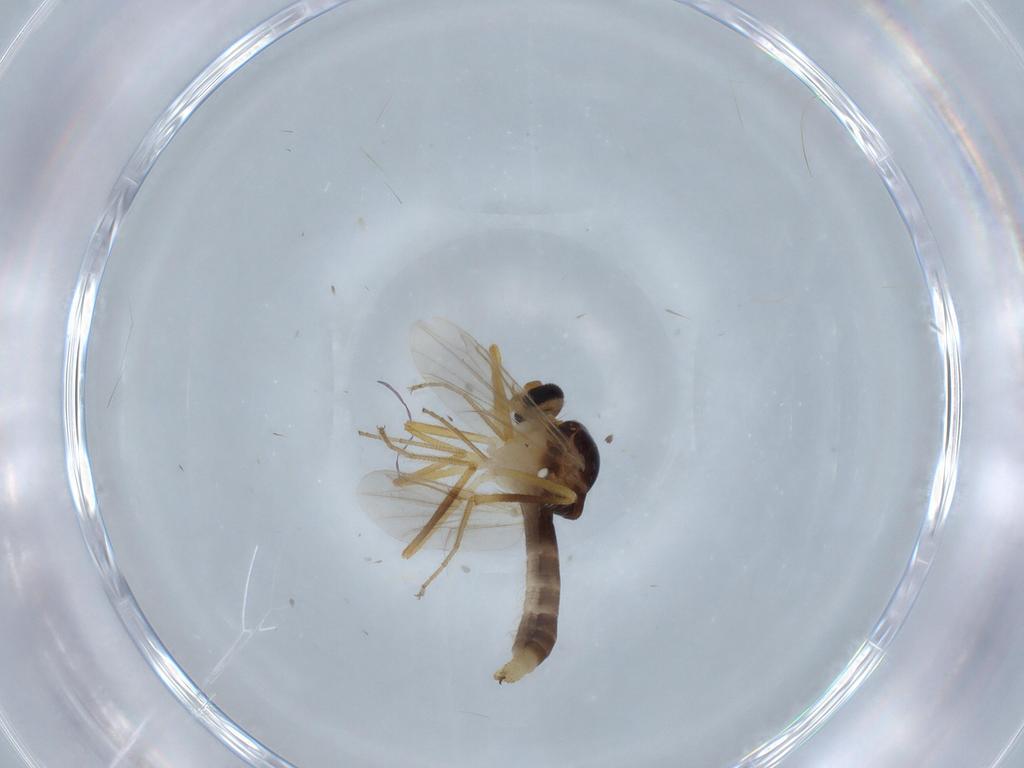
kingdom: Animalia
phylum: Arthropoda
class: Insecta
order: Diptera
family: Psychodidae
